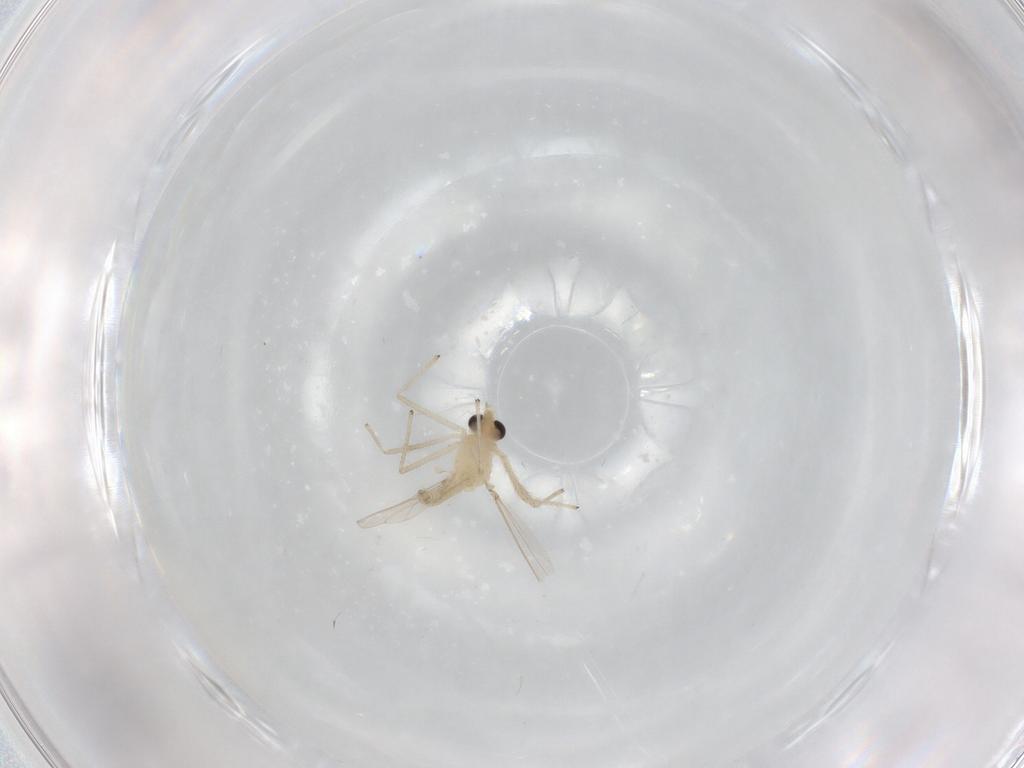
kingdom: Animalia
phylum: Arthropoda
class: Insecta
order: Diptera
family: Chironomidae
